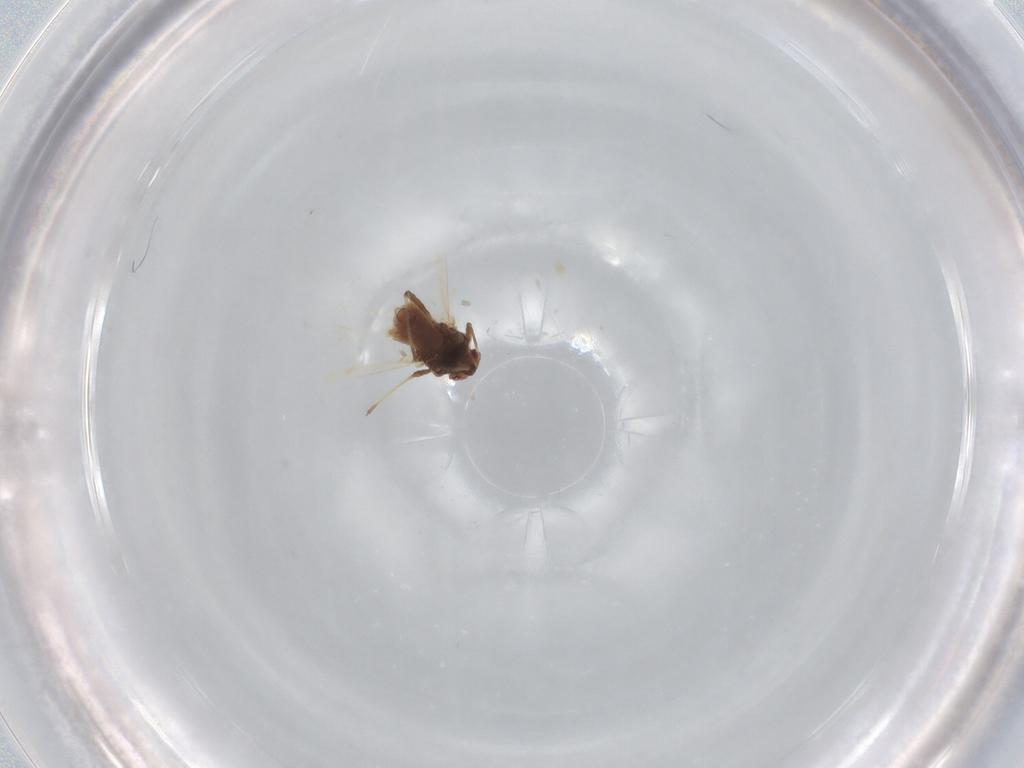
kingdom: Animalia
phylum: Arthropoda
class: Insecta
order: Hemiptera
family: Aphididae
